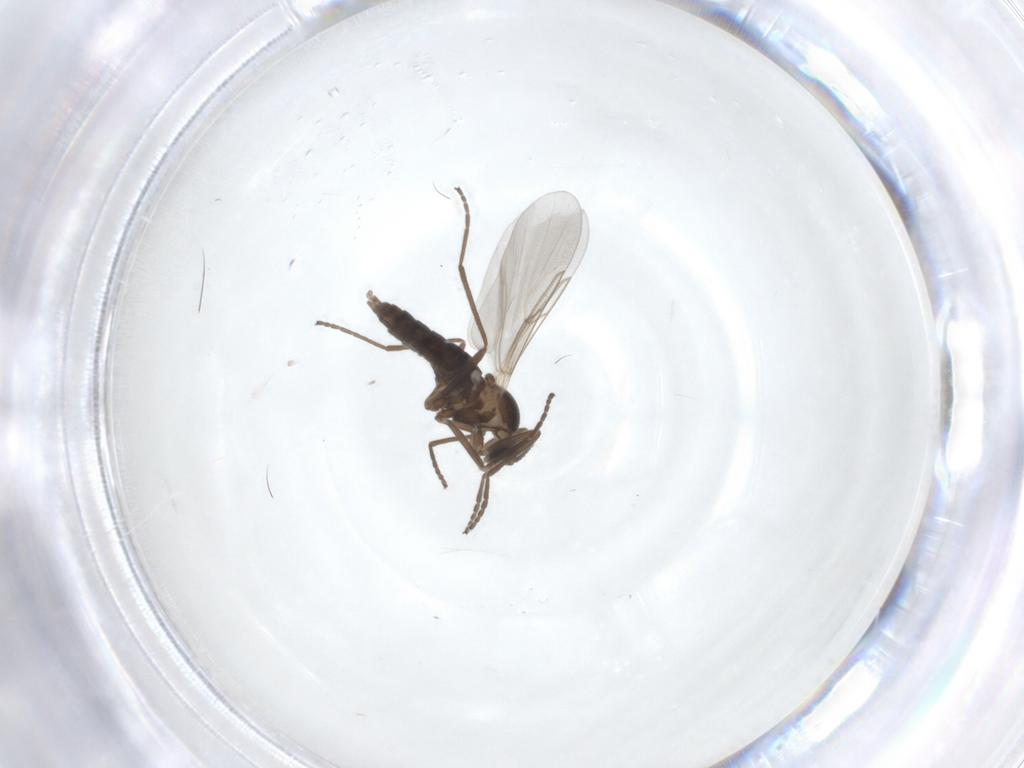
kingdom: Animalia
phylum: Arthropoda
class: Insecta
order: Diptera
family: Cecidomyiidae
